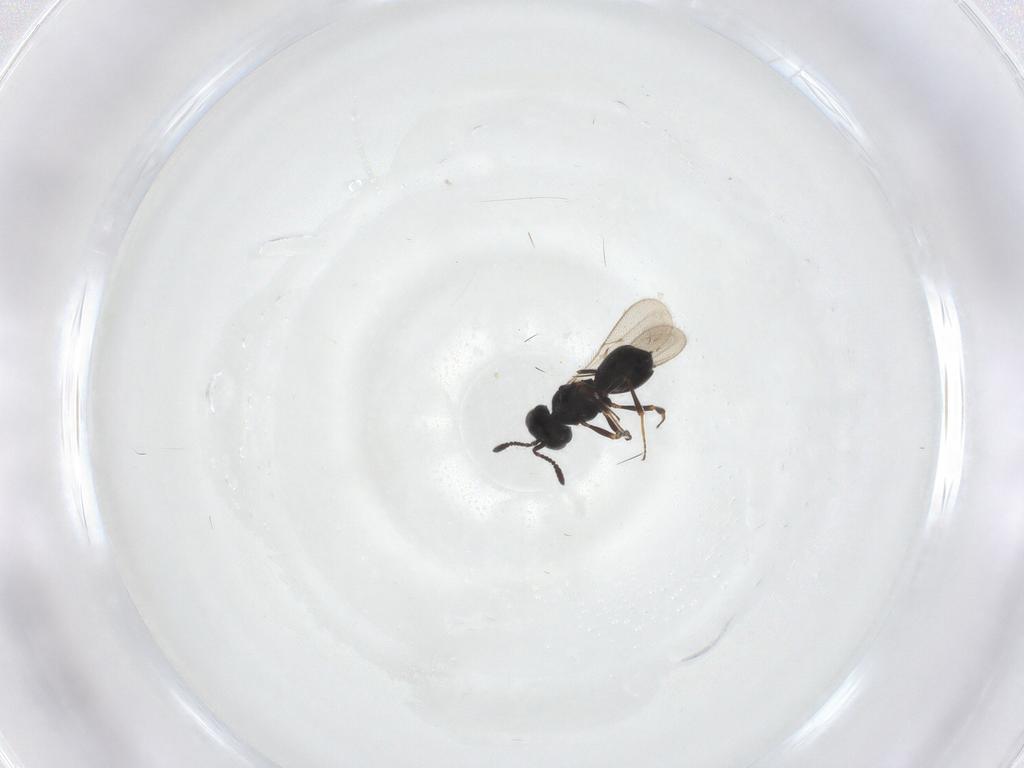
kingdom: Animalia
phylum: Arthropoda
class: Insecta
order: Hymenoptera
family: Scelionidae
